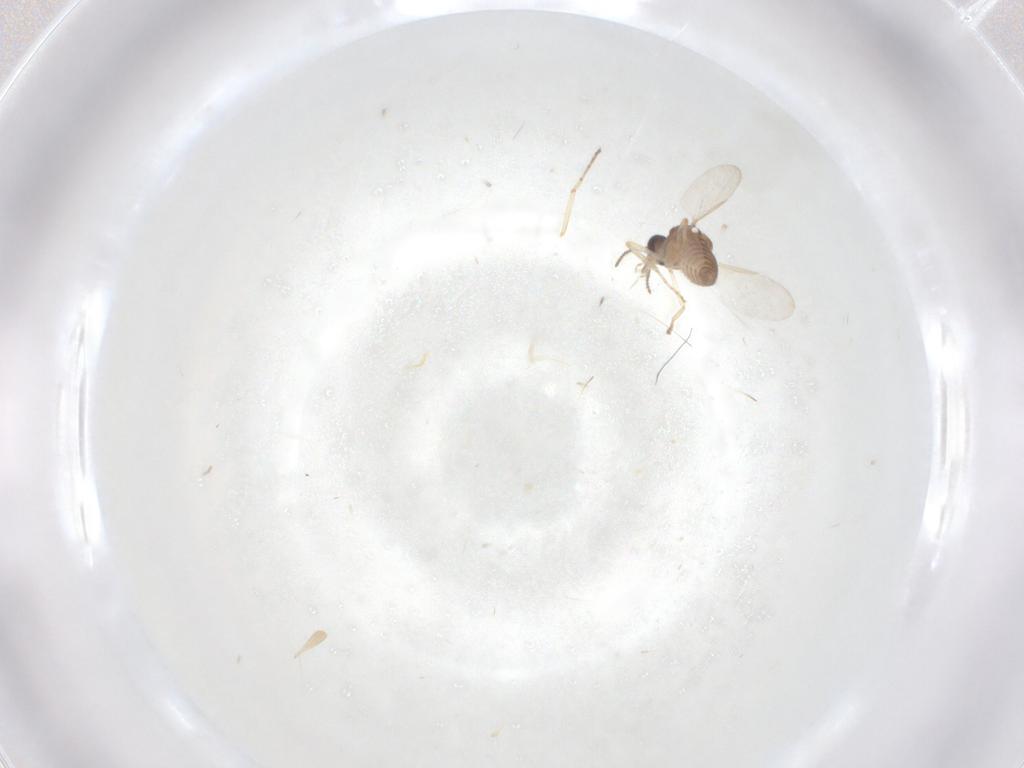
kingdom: Animalia
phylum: Arthropoda
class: Insecta
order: Diptera
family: Ceratopogonidae
